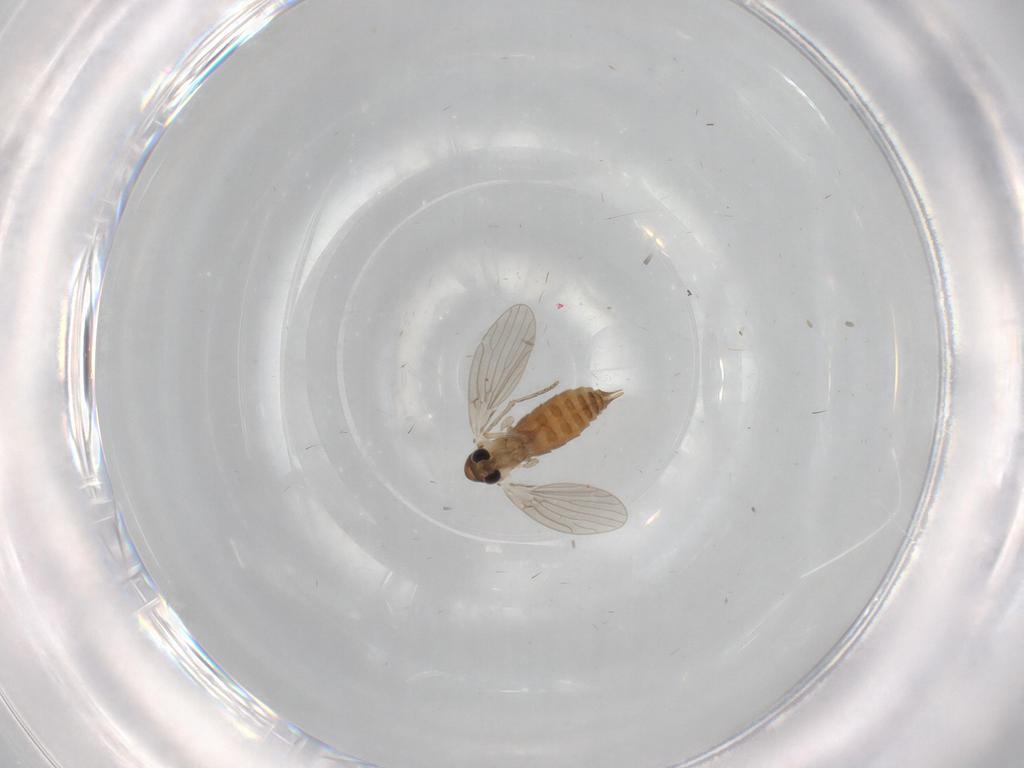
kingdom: Animalia
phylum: Arthropoda
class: Insecta
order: Diptera
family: Psychodidae
